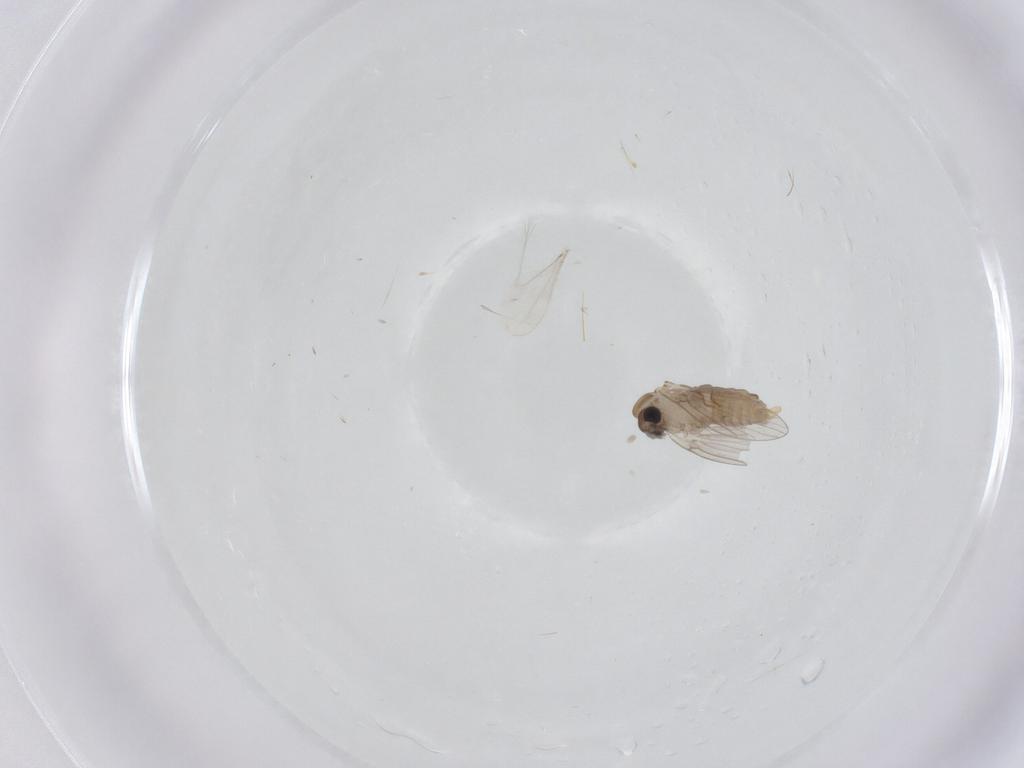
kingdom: Animalia
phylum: Arthropoda
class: Insecta
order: Diptera
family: Psychodidae
